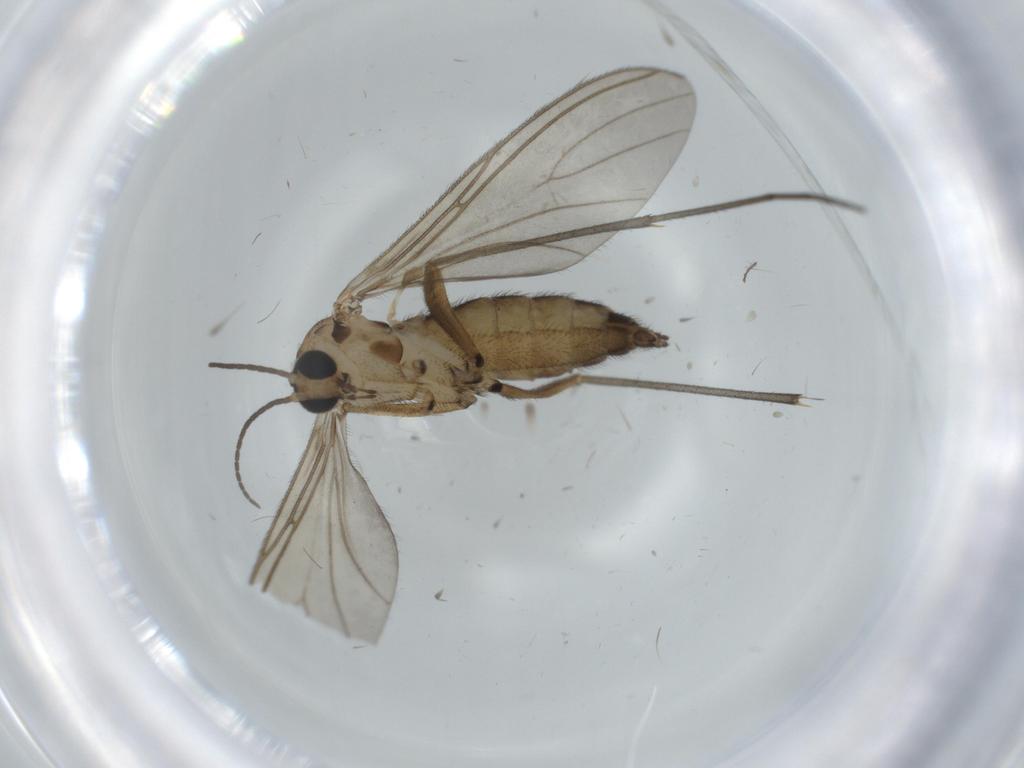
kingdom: Animalia
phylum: Arthropoda
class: Insecta
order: Diptera
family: Sciaridae
